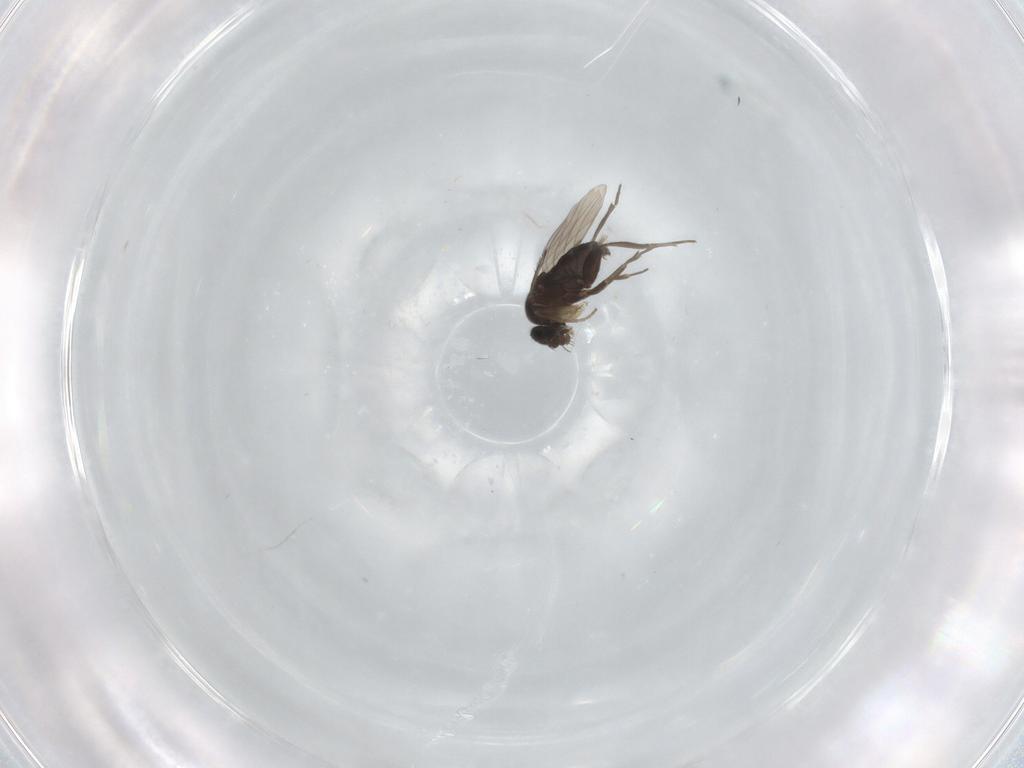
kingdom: Animalia
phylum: Arthropoda
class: Insecta
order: Diptera
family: Phoridae
